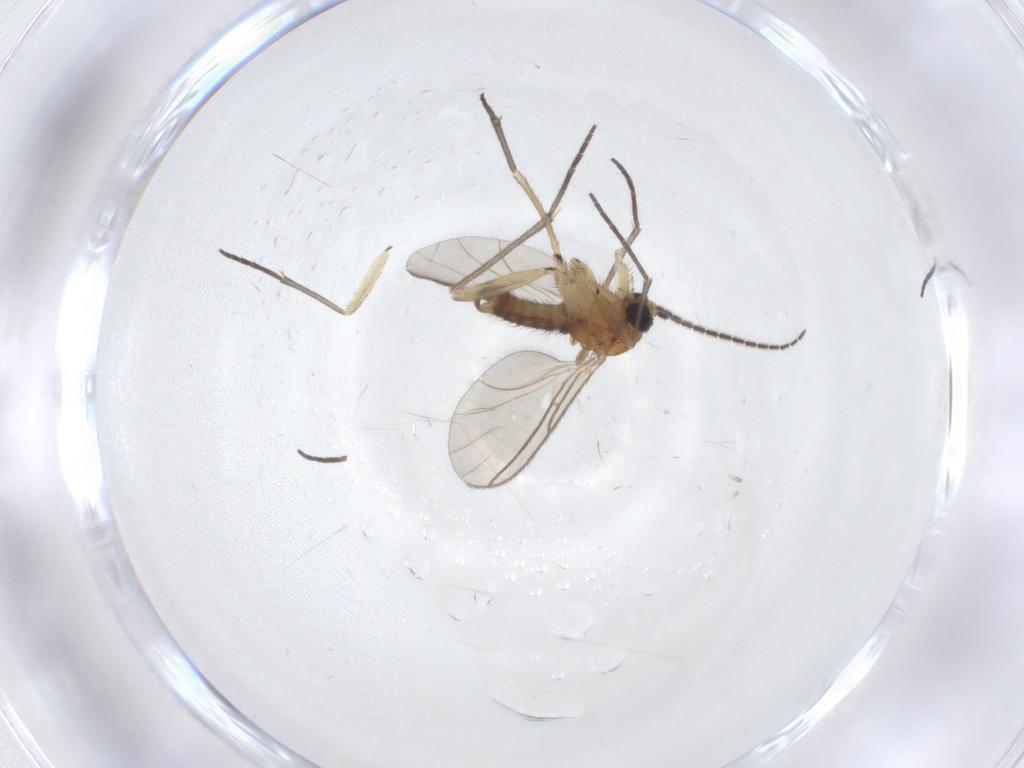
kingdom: Animalia
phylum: Arthropoda
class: Insecta
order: Diptera
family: Sciaridae
